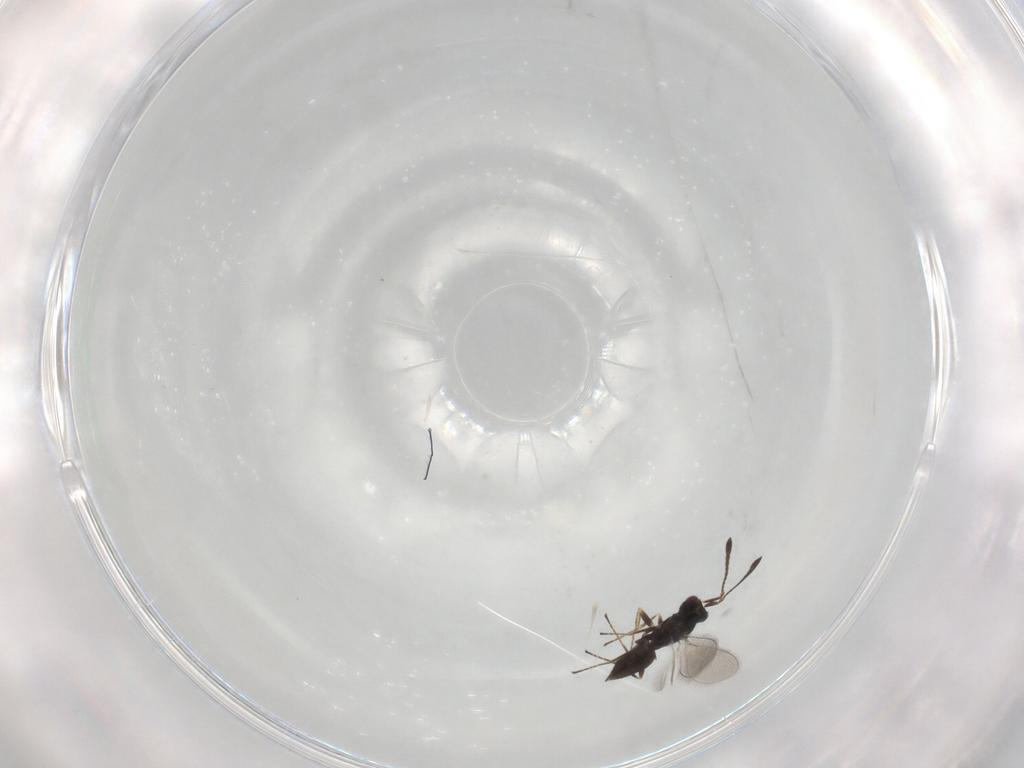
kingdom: Animalia
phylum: Arthropoda
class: Insecta
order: Hymenoptera
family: Mymaridae
